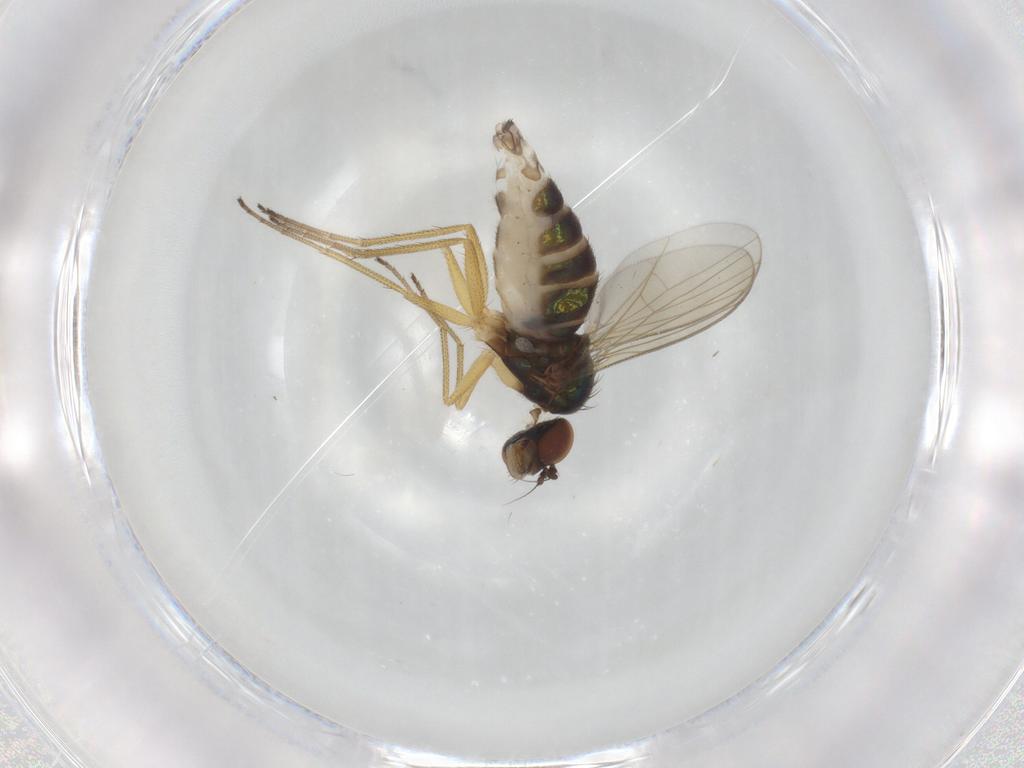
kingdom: Animalia
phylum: Arthropoda
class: Insecta
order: Diptera
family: Dolichopodidae
